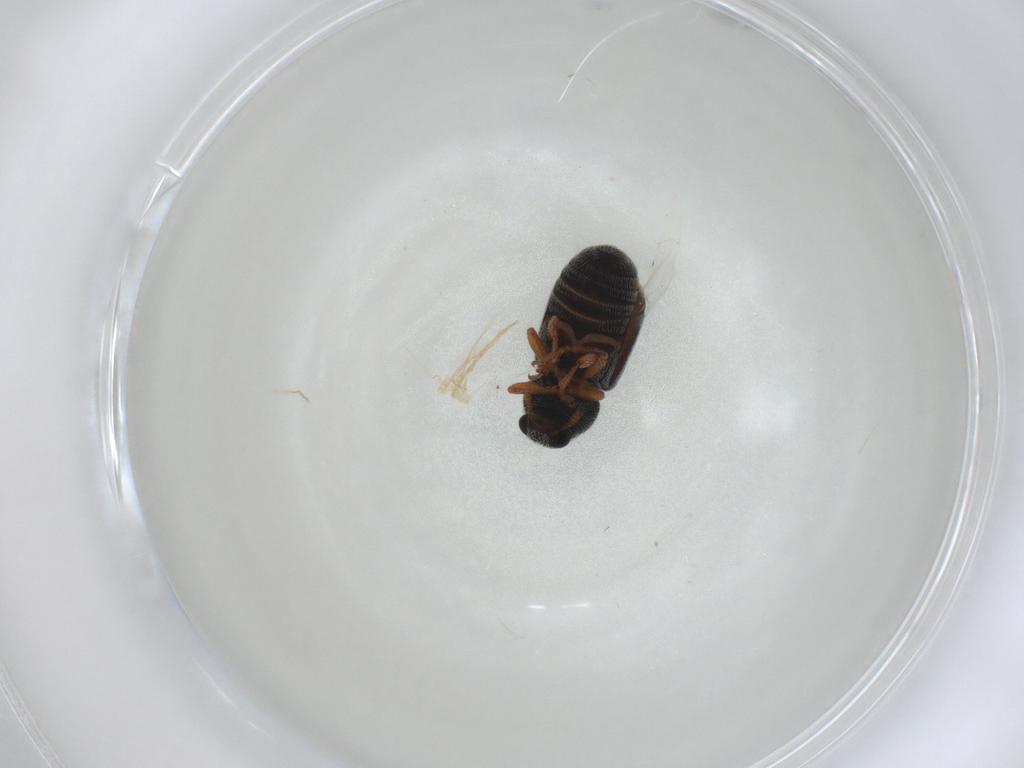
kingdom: Animalia
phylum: Arthropoda
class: Insecta
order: Coleoptera
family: Anthribidae
